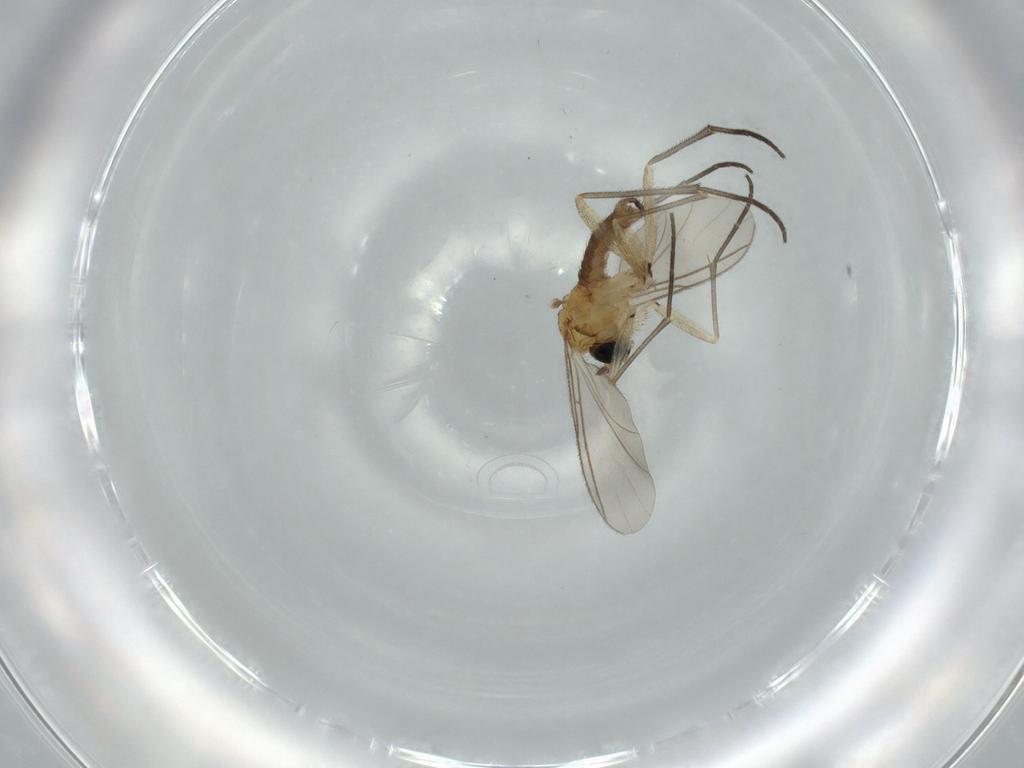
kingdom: Animalia
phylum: Arthropoda
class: Insecta
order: Diptera
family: Sciaridae
